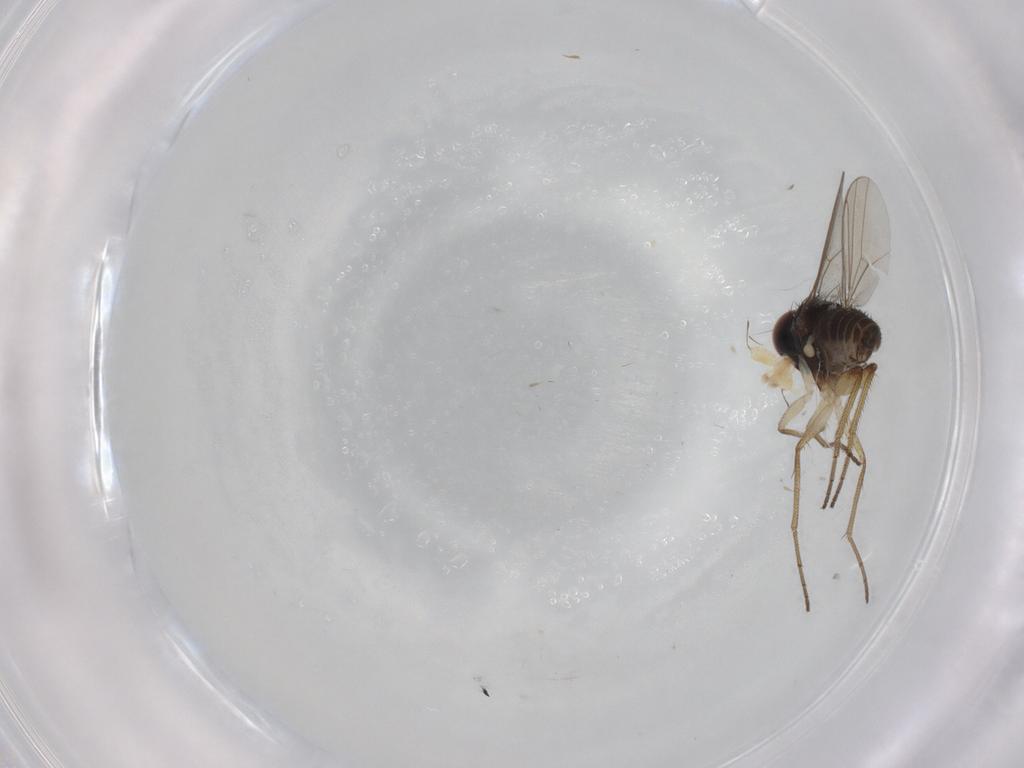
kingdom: Animalia
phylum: Arthropoda
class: Insecta
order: Diptera
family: Dolichopodidae
